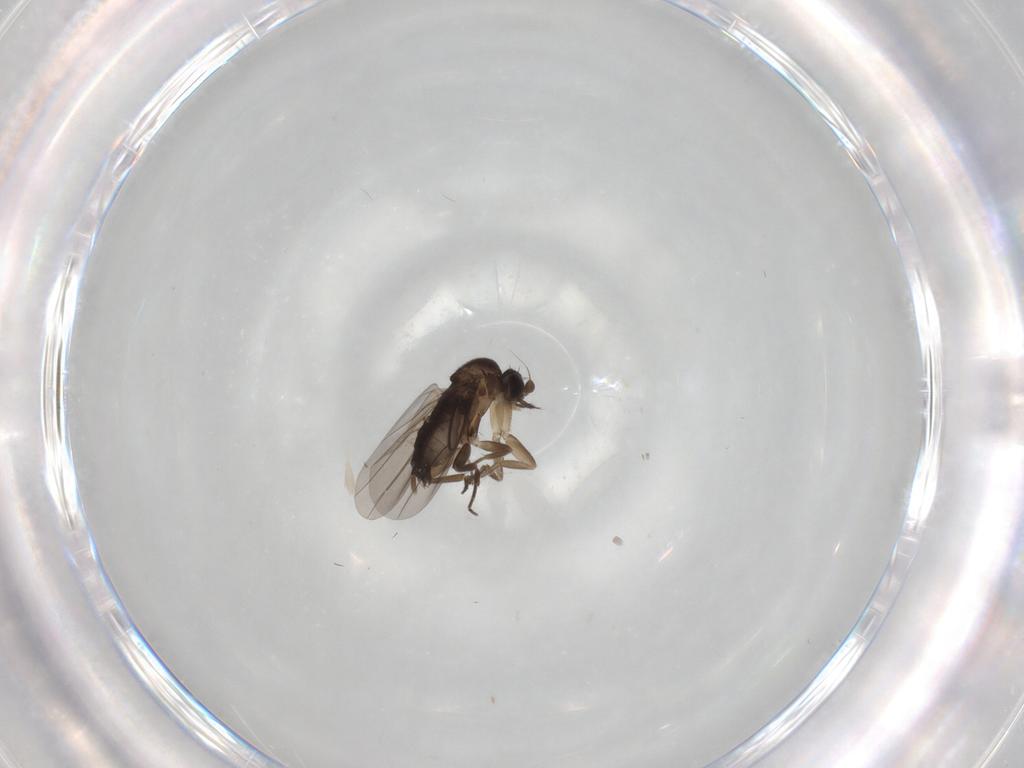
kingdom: Animalia
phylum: Arthropoda
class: Insecta
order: Diptera
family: Phoridae
